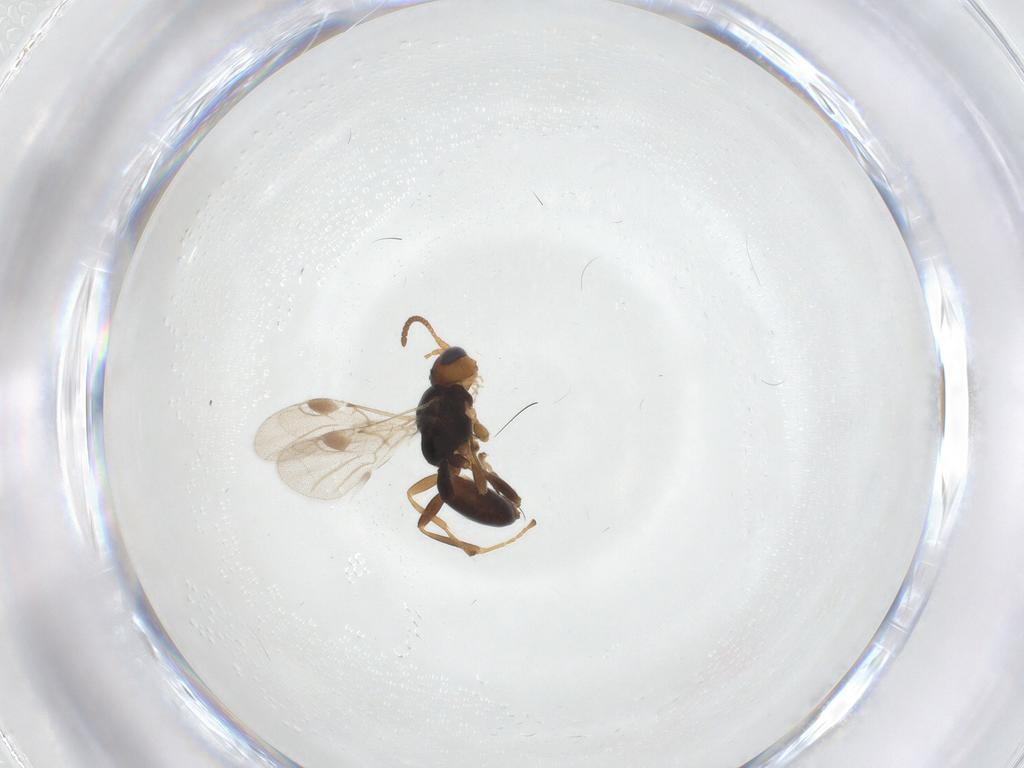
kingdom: Animalia
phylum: Arthropoda
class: Insecta
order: Hymenoptera
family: Braconidae
